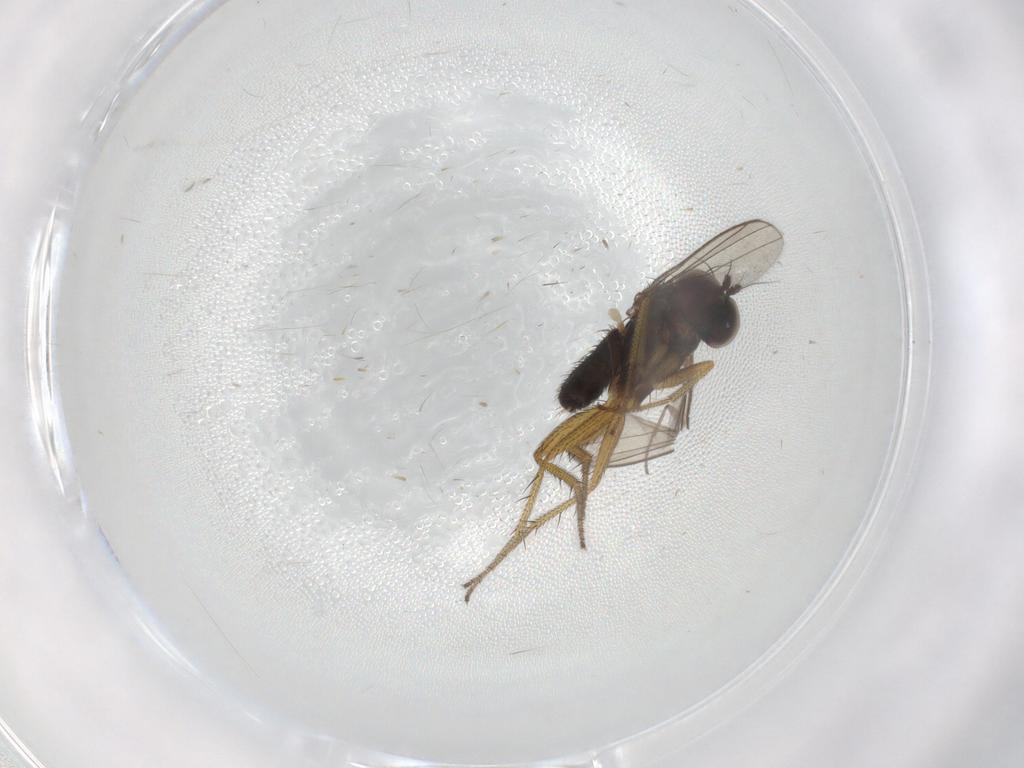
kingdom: Animalia
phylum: Arthropoda
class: Insecta
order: Diptera
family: Sciaridae
